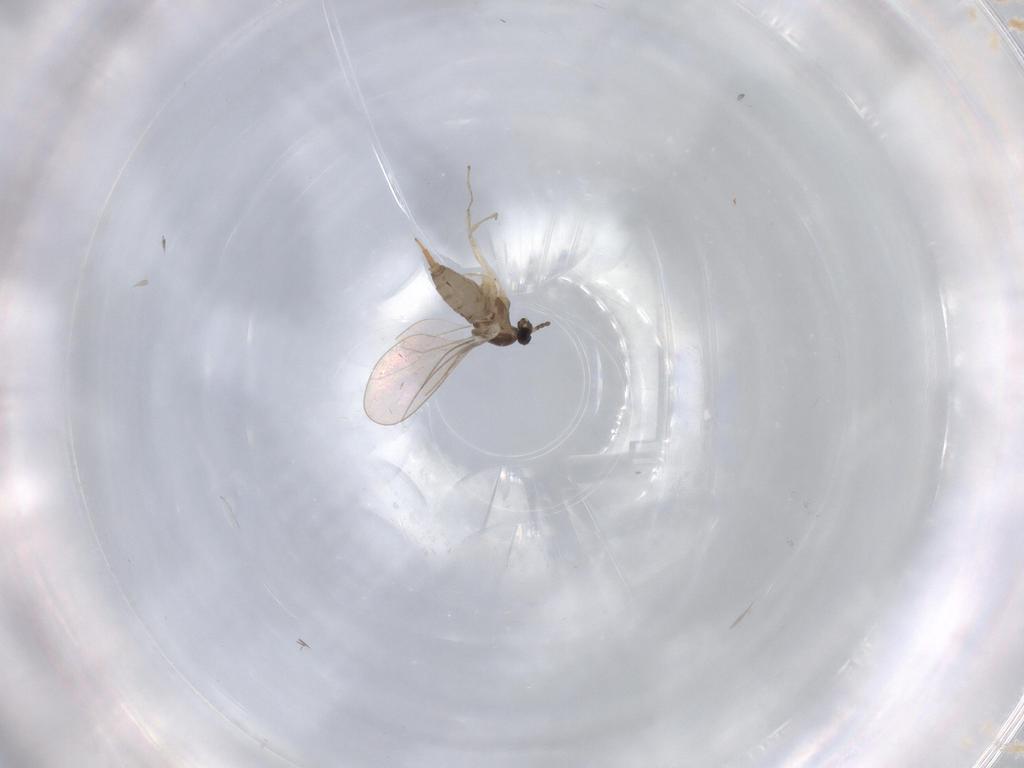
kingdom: Animalia
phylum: Arthropoda
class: Insecta
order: Diptera
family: Cecidomyiidae
